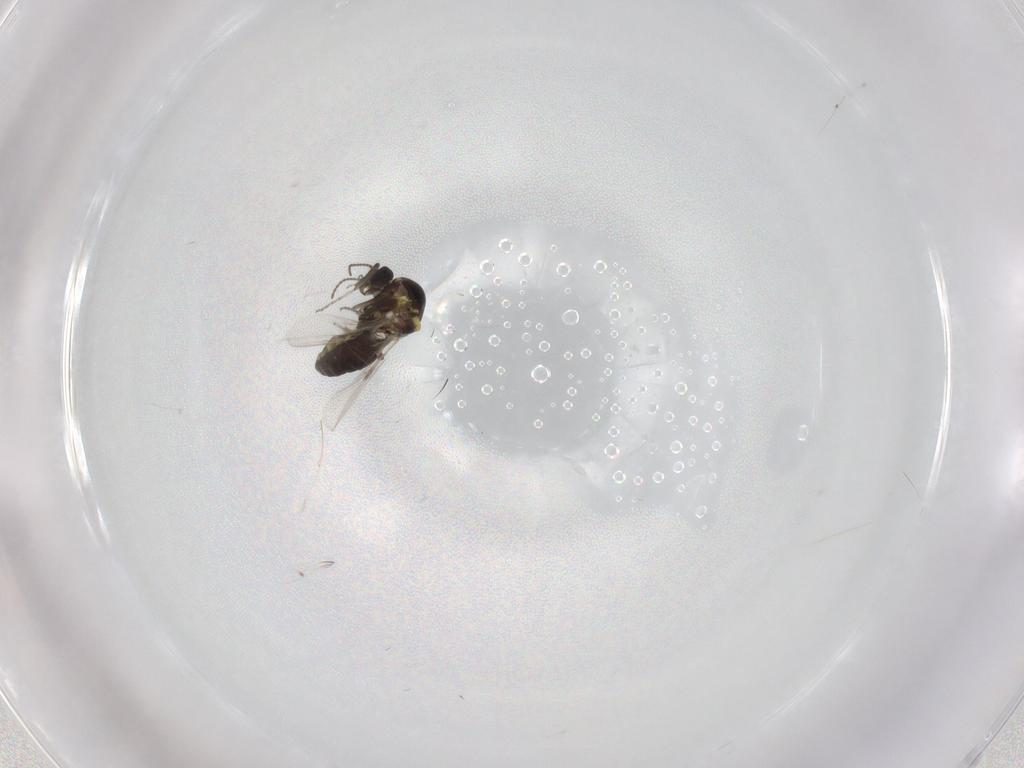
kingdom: Animalia
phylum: Arthropoda
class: Insecta
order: Diptera
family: Ceratopogonidae
